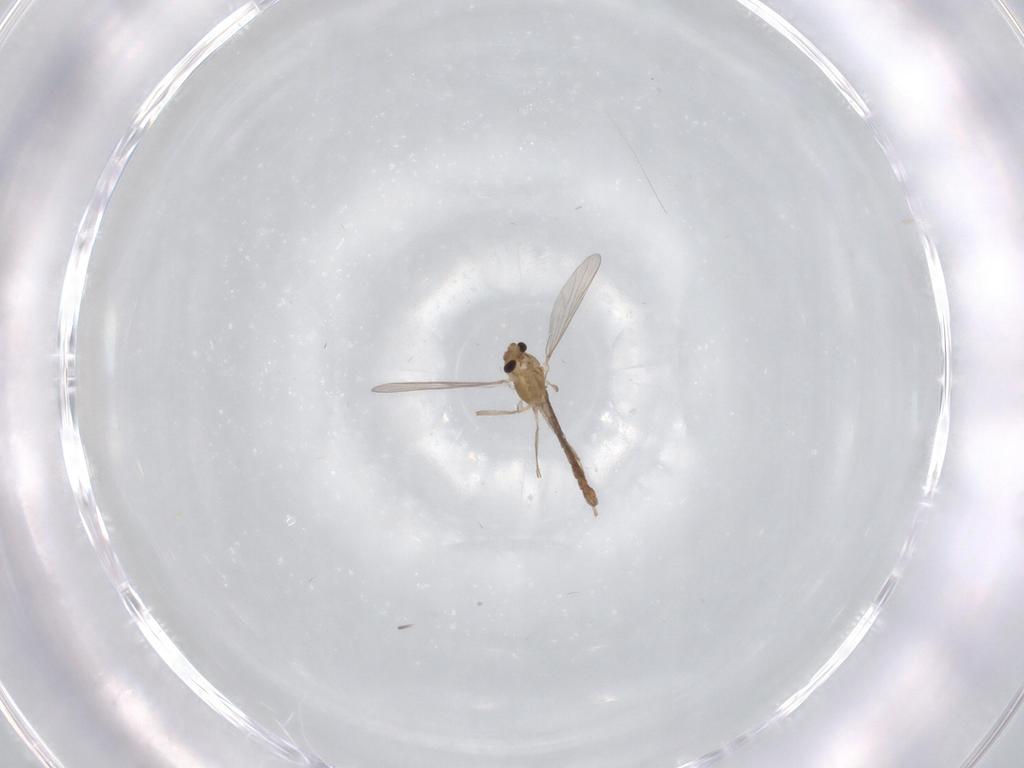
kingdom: Animalia
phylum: Arthropoda
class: Insecta
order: Diptera
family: Chironomidae
